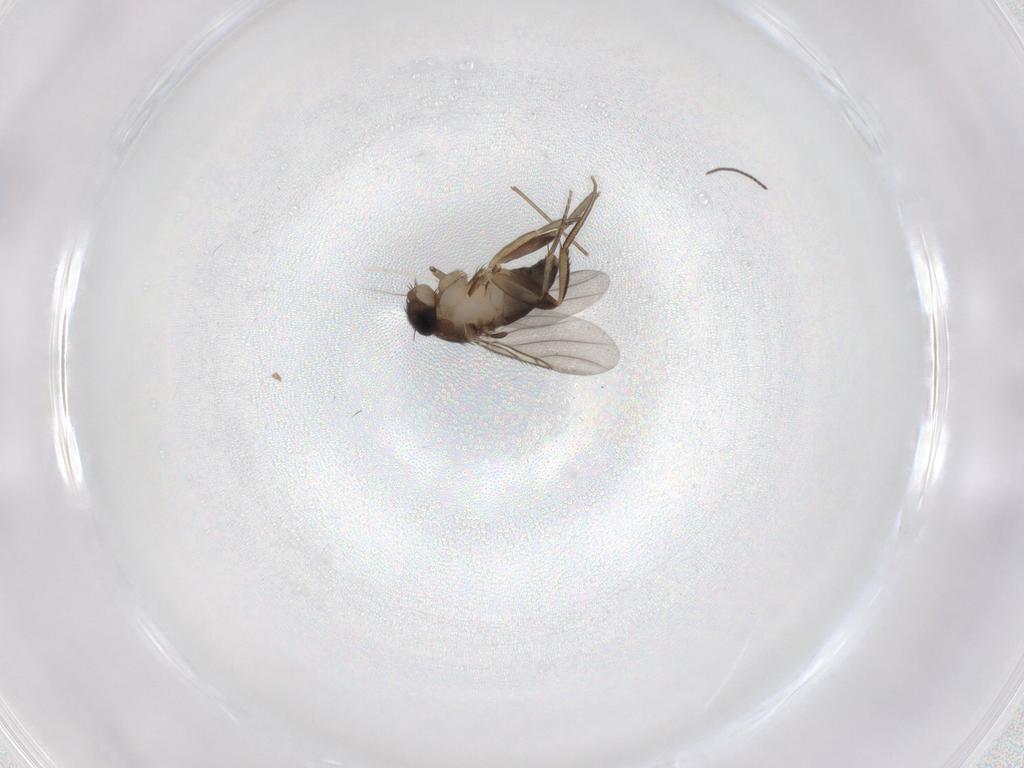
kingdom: Animalia
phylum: Arthropoda
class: Insecta
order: Diptera
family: Phoridae
